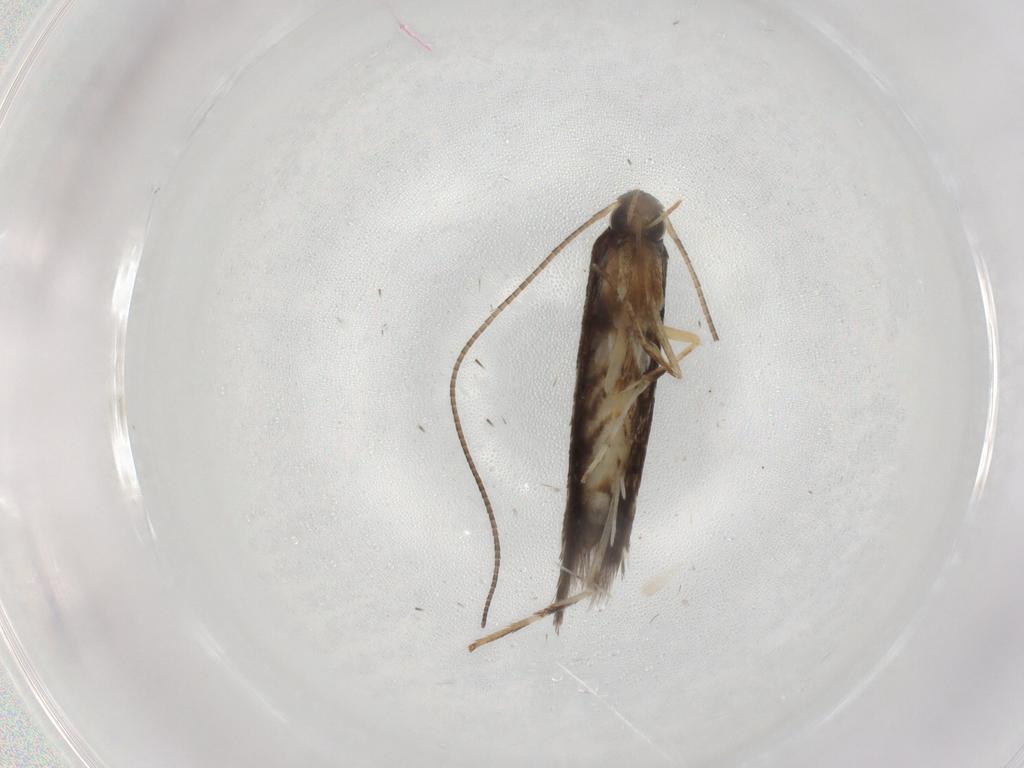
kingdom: Animalia
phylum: Arthropoda
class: Insecta
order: Lepidoptera
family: Gracillariidae
